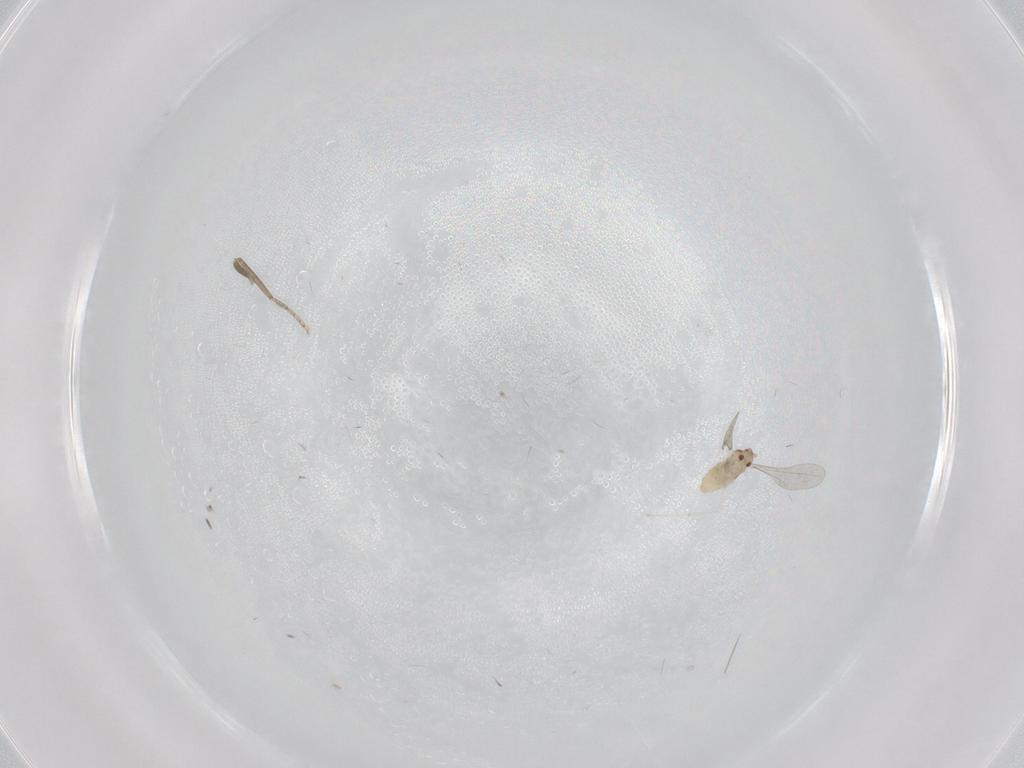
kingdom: Animalia
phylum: Arthropoda
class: Insecta
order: Diptera
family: Cecidomyiidae
